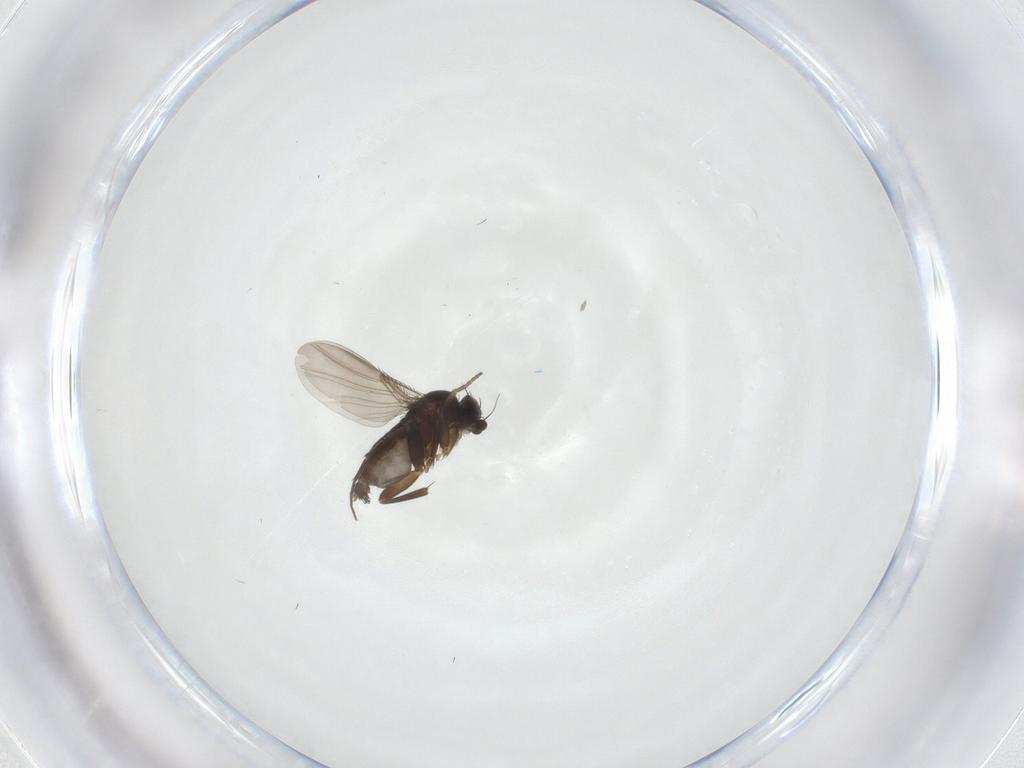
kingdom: Animalia
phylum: Arthropoda
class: Insecta
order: Diptera
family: Phoridae
